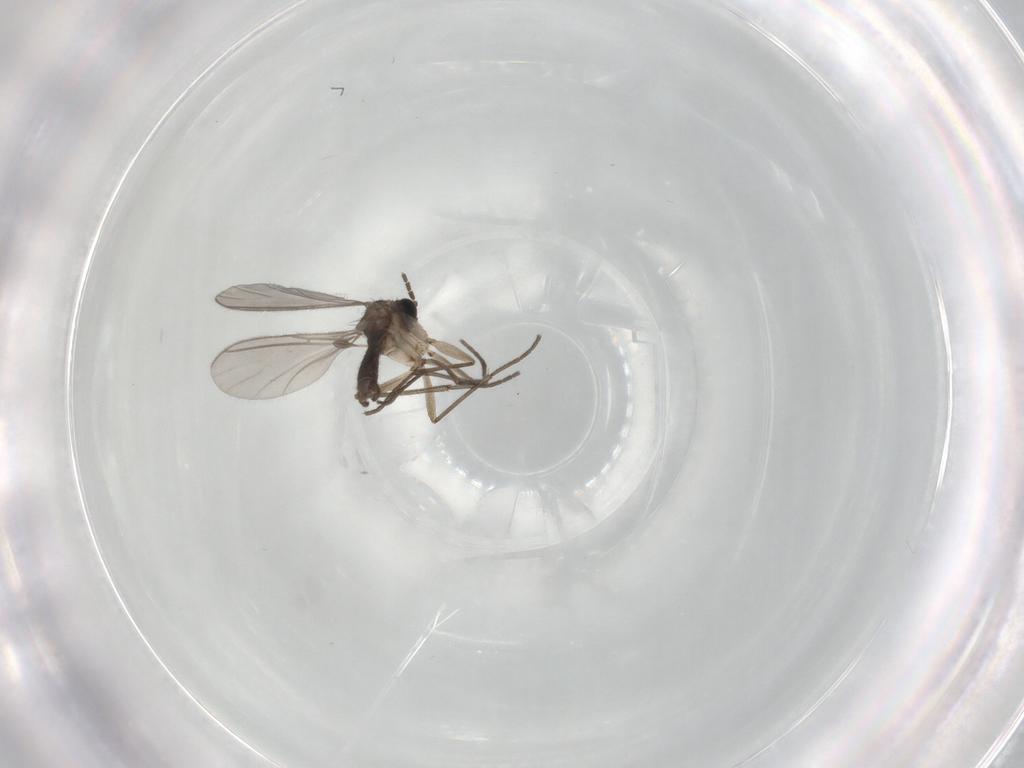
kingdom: Animalia
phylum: Arthropoda
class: Insecta
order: Diptera
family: Sciaridae
